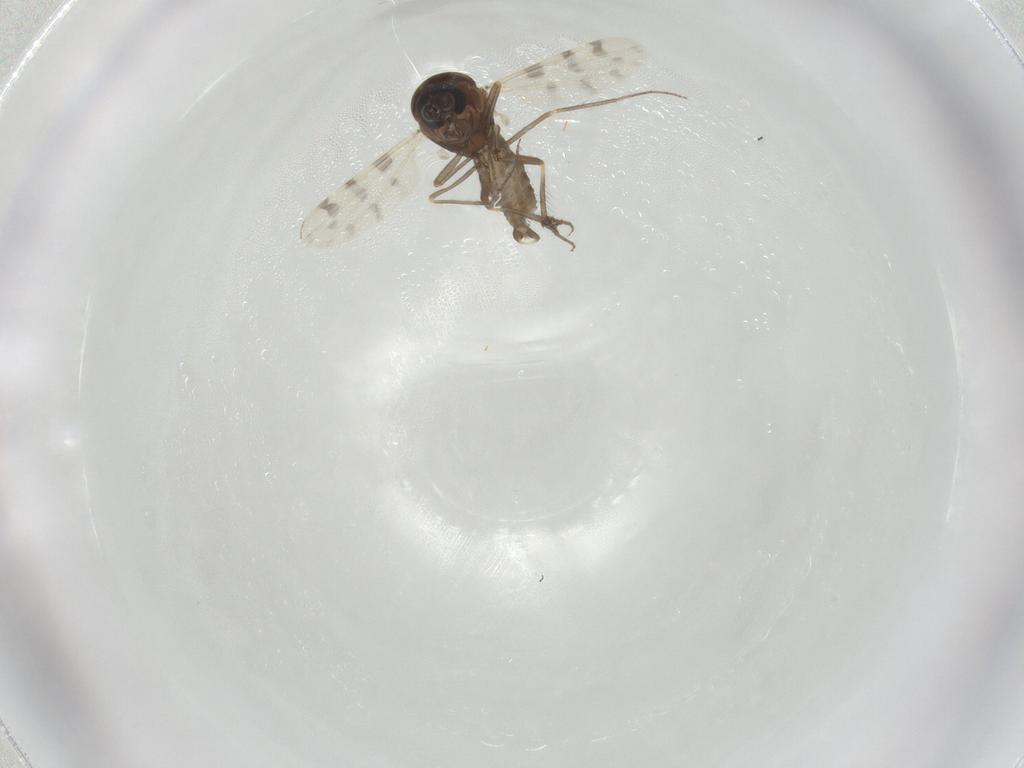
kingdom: Animalia
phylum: Arthropoda
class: Insecta
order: Diptera
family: Ceratopogonidae
